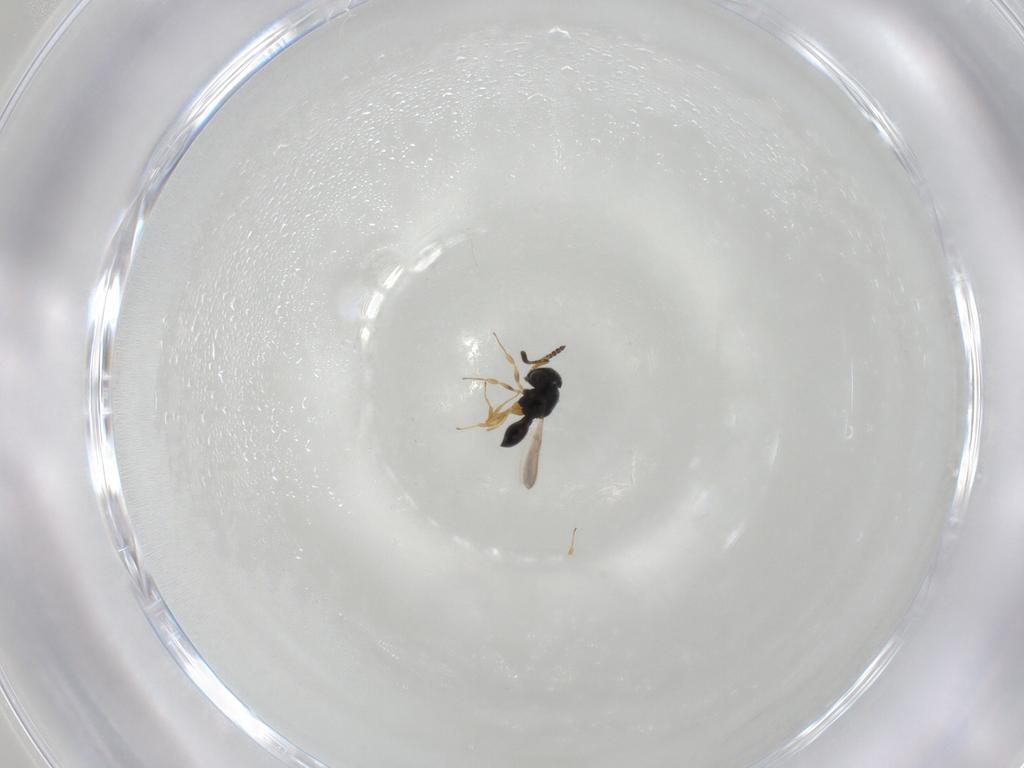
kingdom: Animalia
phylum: Arthropoda
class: Insecta
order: Hymenoptera
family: Scelionidae
